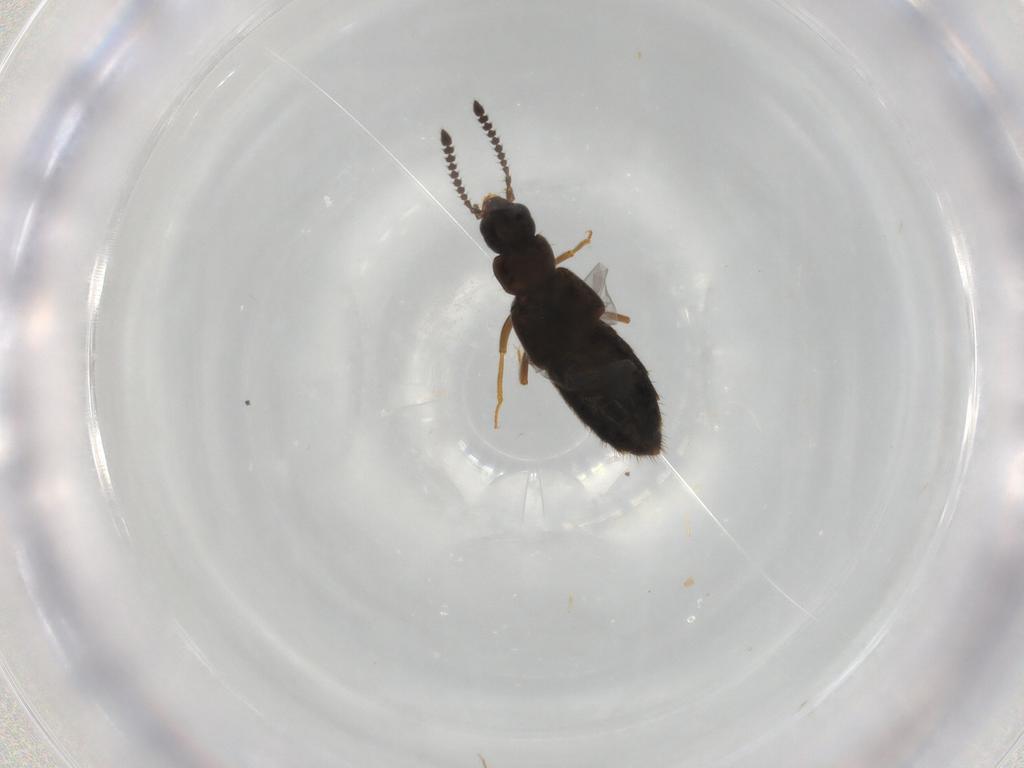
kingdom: Animalia
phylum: Arthropoda
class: Insecta
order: Coleoptera
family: Staphylinidae
